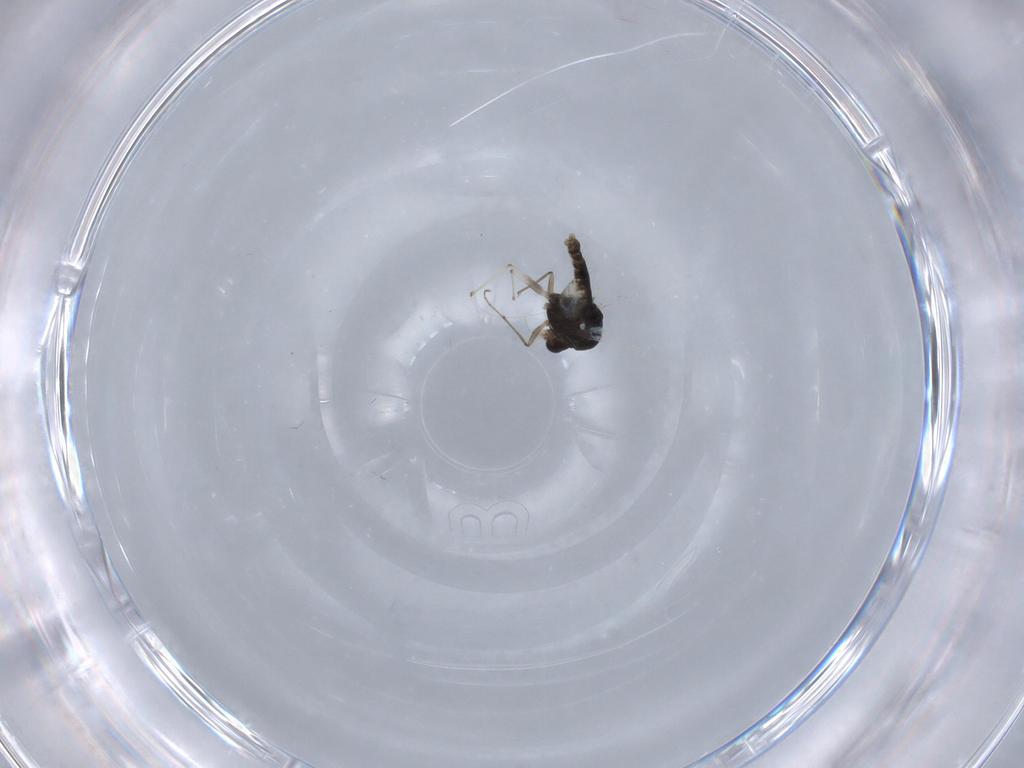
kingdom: Animalia
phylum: Arthropoda
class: Insecta
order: Diptera
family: Chironomidae
